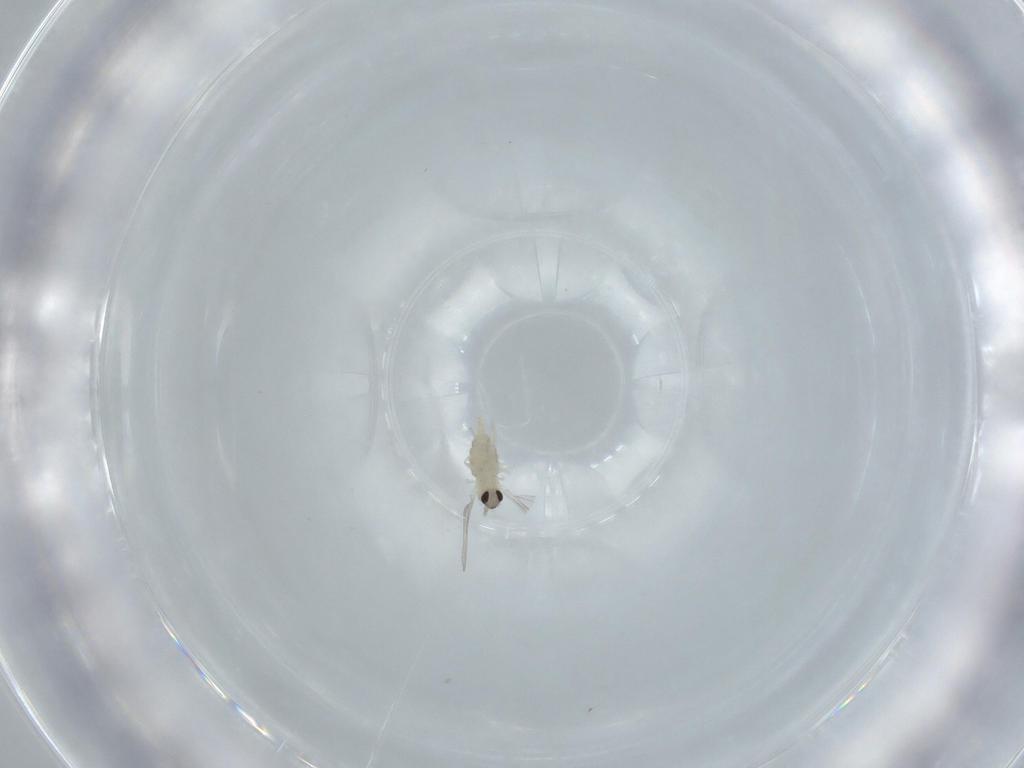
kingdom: Animalia
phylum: Arthropoda
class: Insecta
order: Diptera
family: Cecidomyiidae
